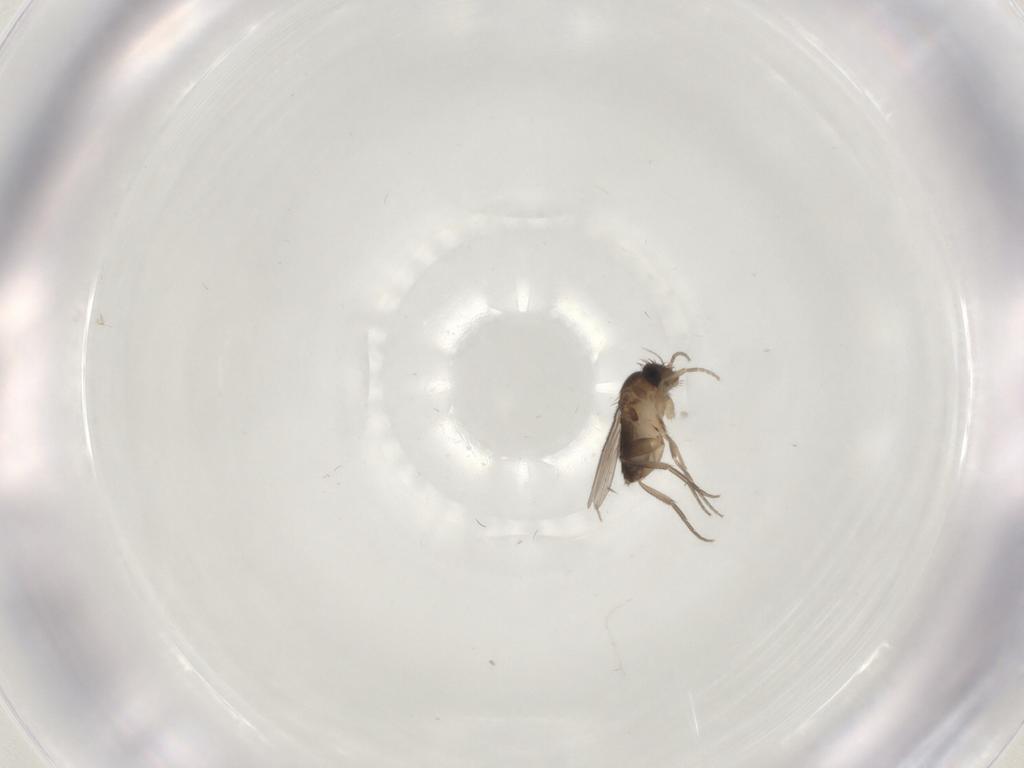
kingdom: Animalia
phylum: Arthropoda
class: Insecta
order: Diptera
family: Phoridae
